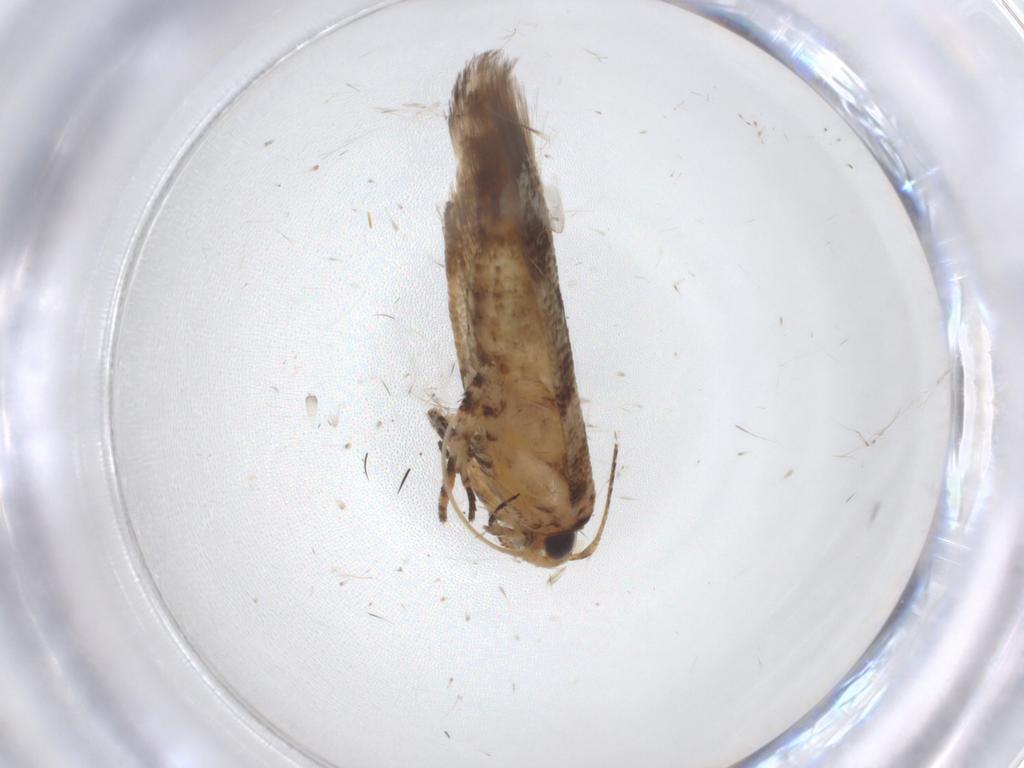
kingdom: Animalia
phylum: Arthropoda
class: Insecta
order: Lepidoptera
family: Gelechiidae
